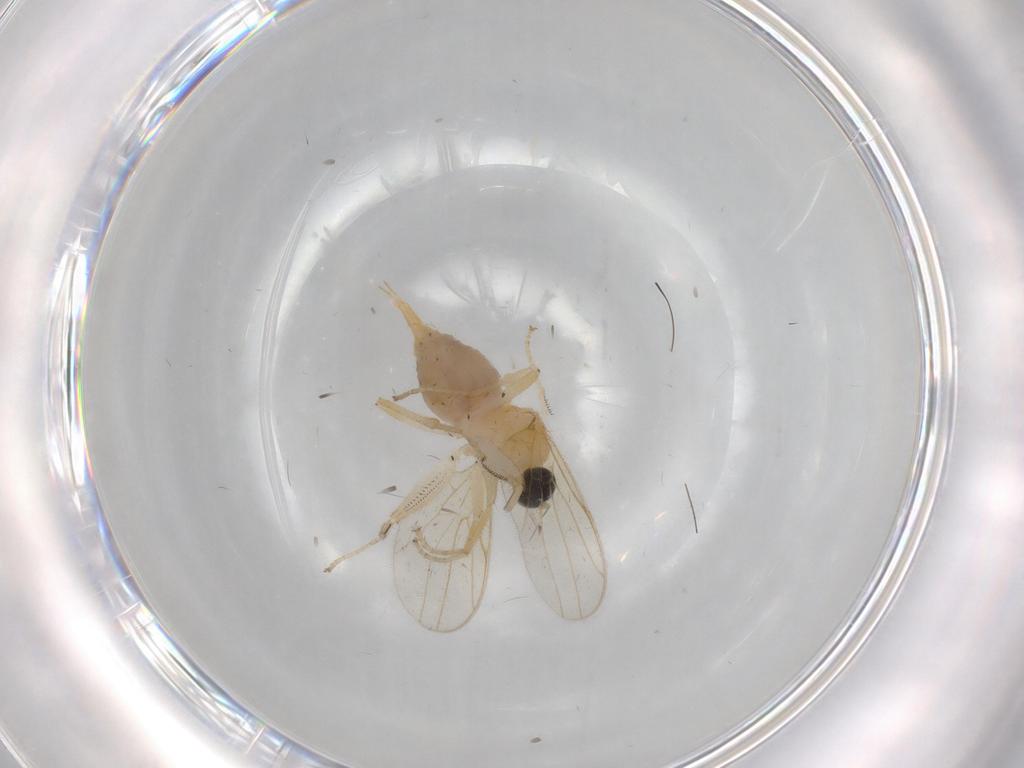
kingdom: Animalia
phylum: Arthropoda
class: Insecta
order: Diptera
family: Hybotidae
